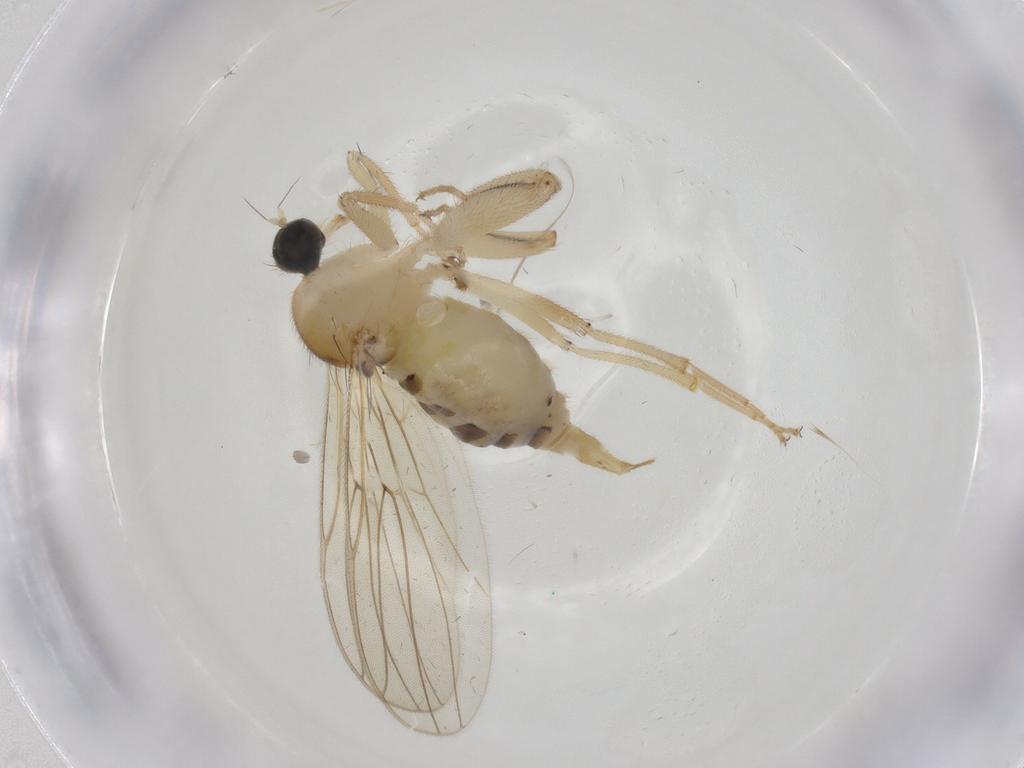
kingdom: Animalia
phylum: Arthropoda
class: Insecta
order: Diptera
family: Hybotidae
